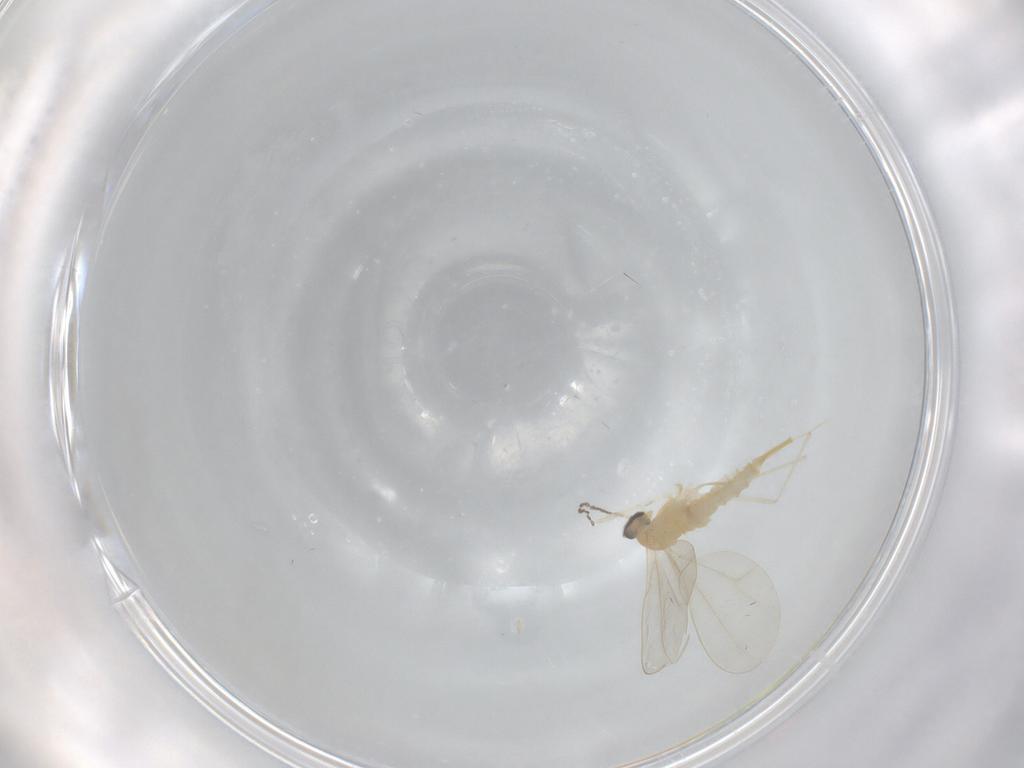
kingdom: Animalia
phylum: Arthropoda
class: Insecta
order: Diptera
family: Cecidomyiidae
